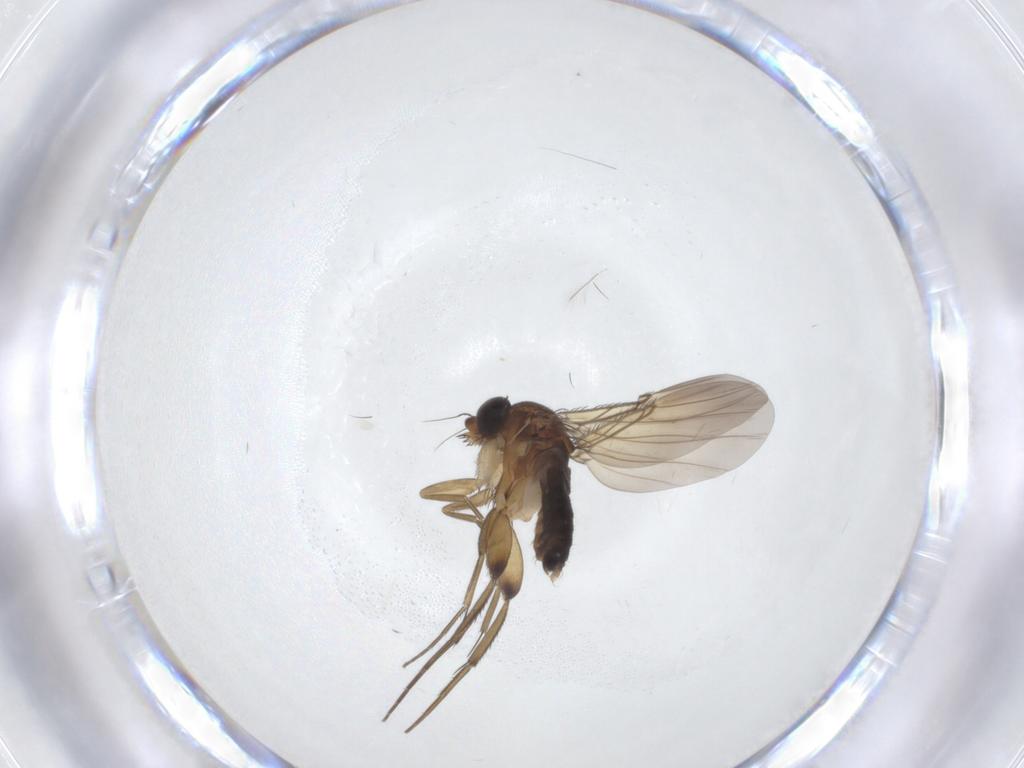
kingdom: Animalia
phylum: Arthropoda
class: Insecta
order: Diptera
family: Phoridae
